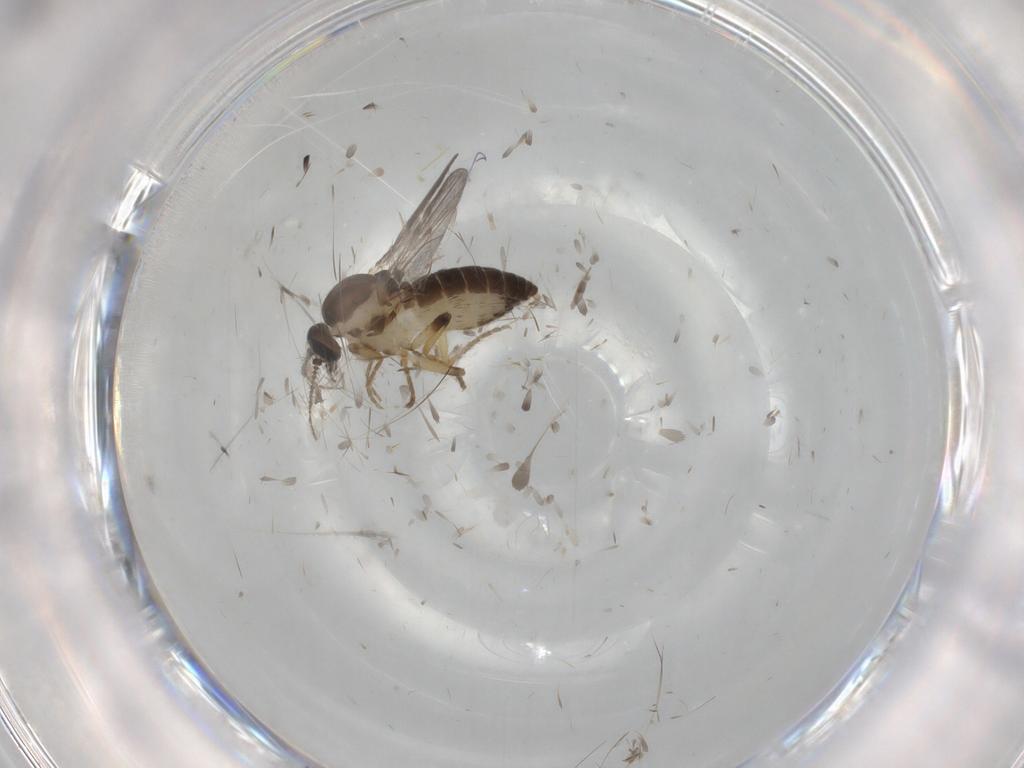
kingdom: Animalia
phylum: Arthropoda
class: Insecta
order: Diptera
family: Ceratopogonidae
